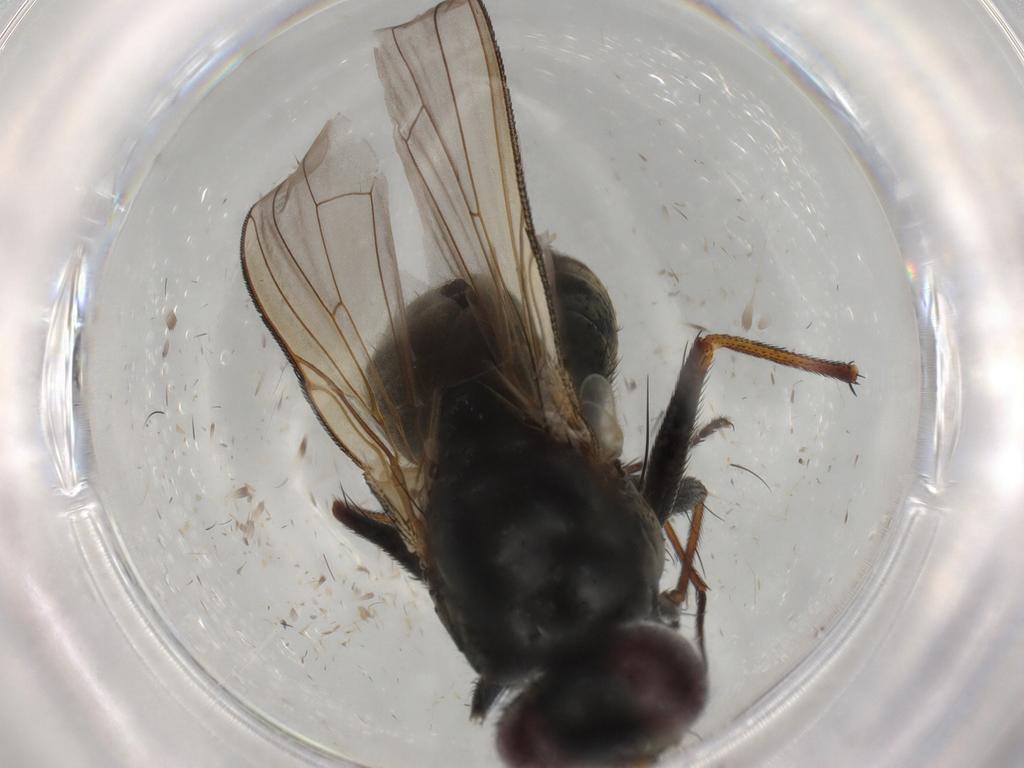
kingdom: Animalia
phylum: Arthropoda
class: Insecta
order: Diptera
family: Muscidae
